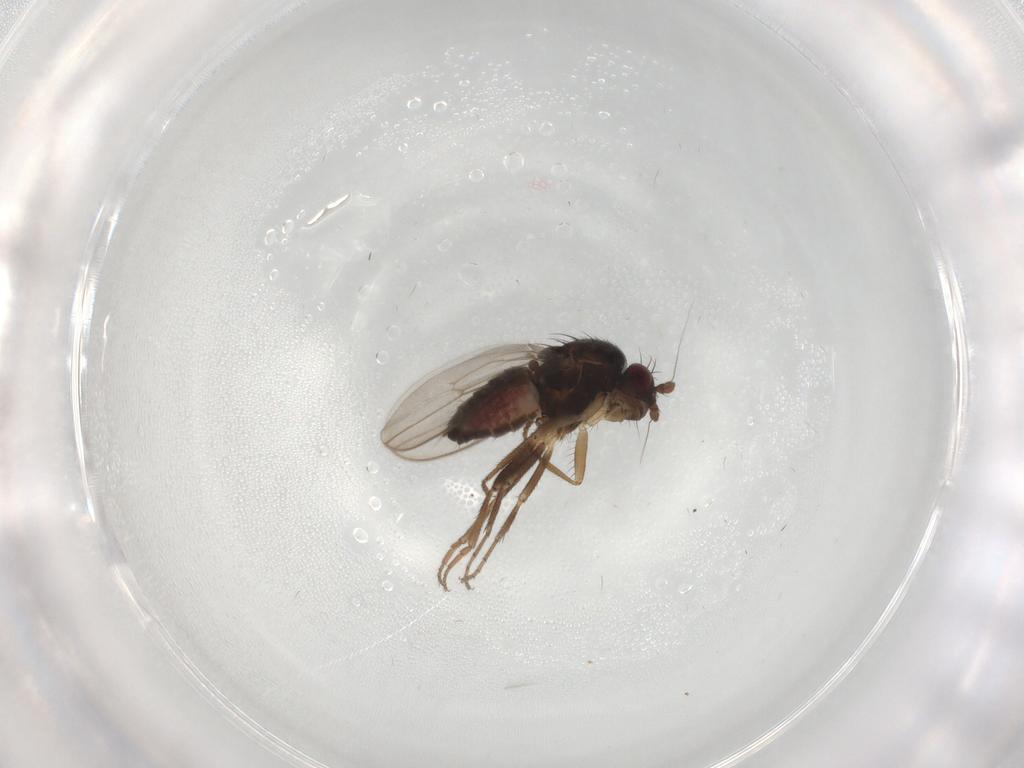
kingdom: Animalia
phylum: Arthropoda
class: Insecta
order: Diptera
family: Sphaeroceridae
